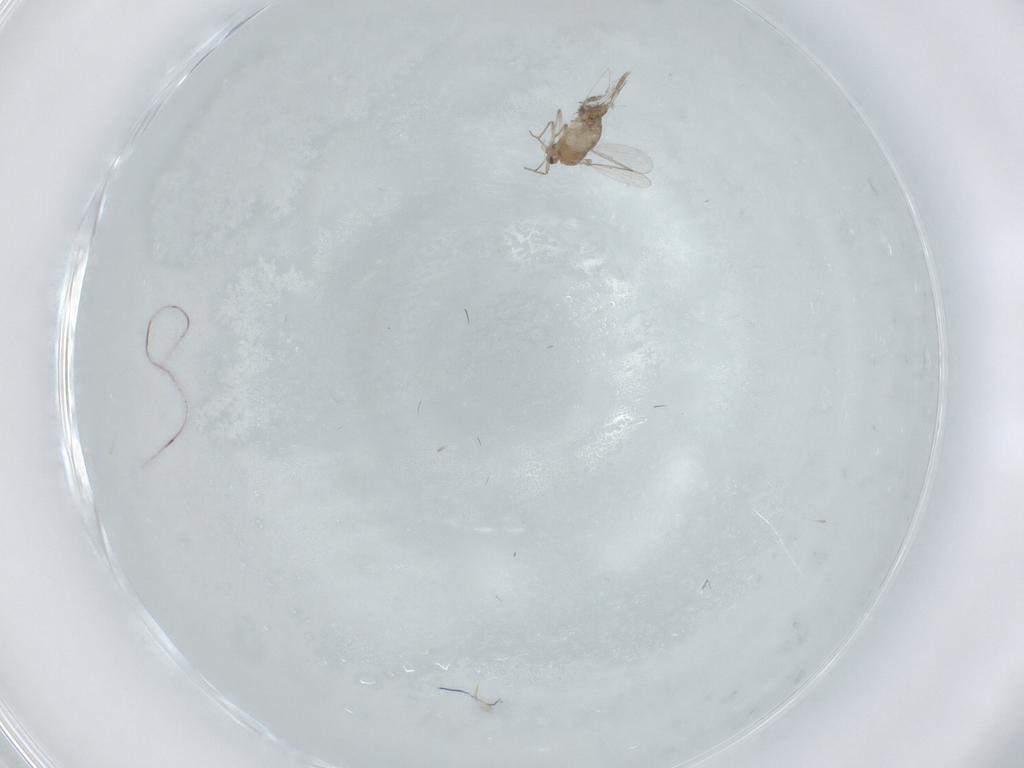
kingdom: Animalia
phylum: Arthropoda
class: Insecta
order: Diptera
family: Chironomidae
